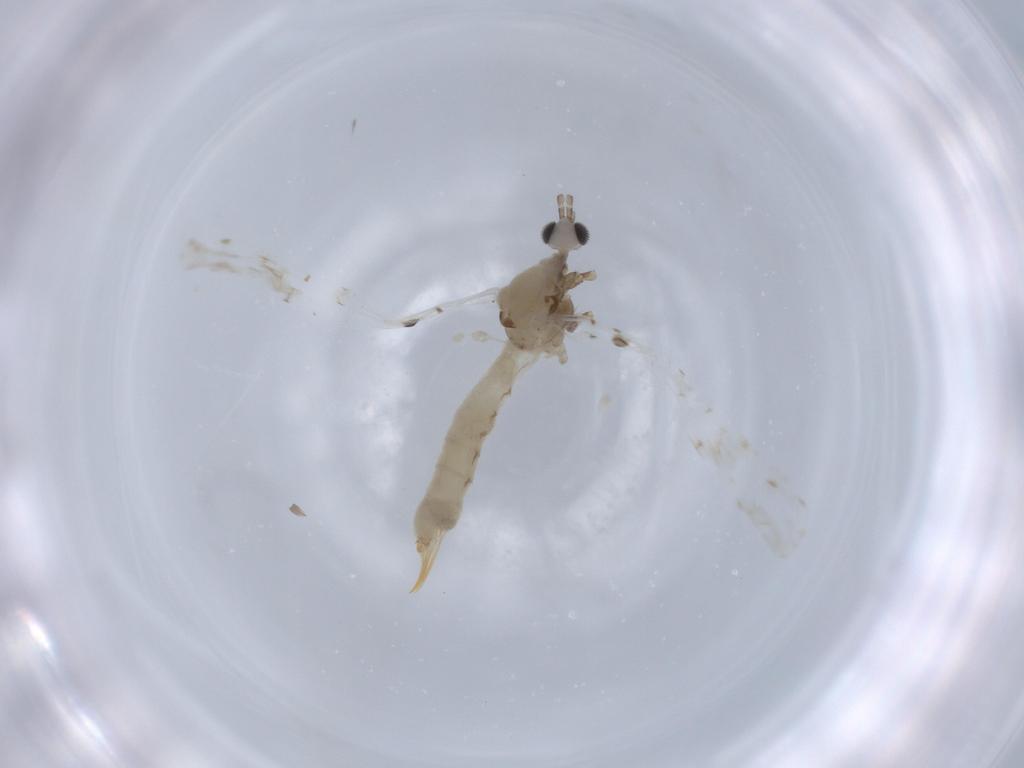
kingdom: Animalia
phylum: Arthropoda
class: Insecta
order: Diptera
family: Limoniidae
